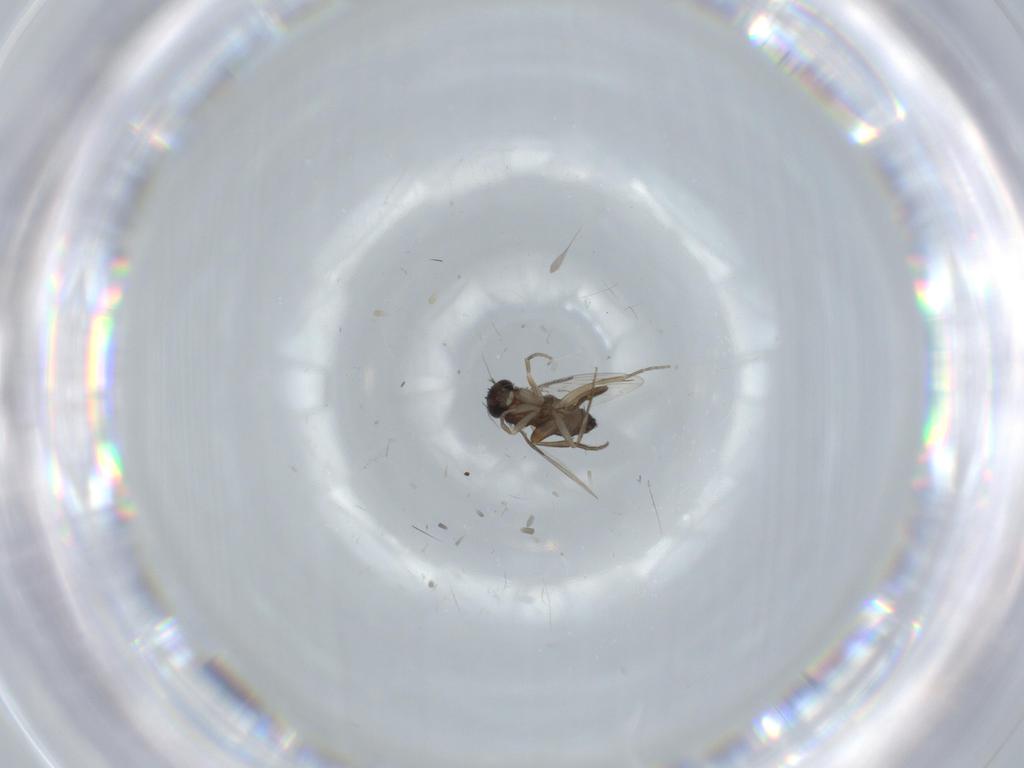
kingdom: Animalia
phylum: Arthropoda
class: Insecta
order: Diptera
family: Phoridae
